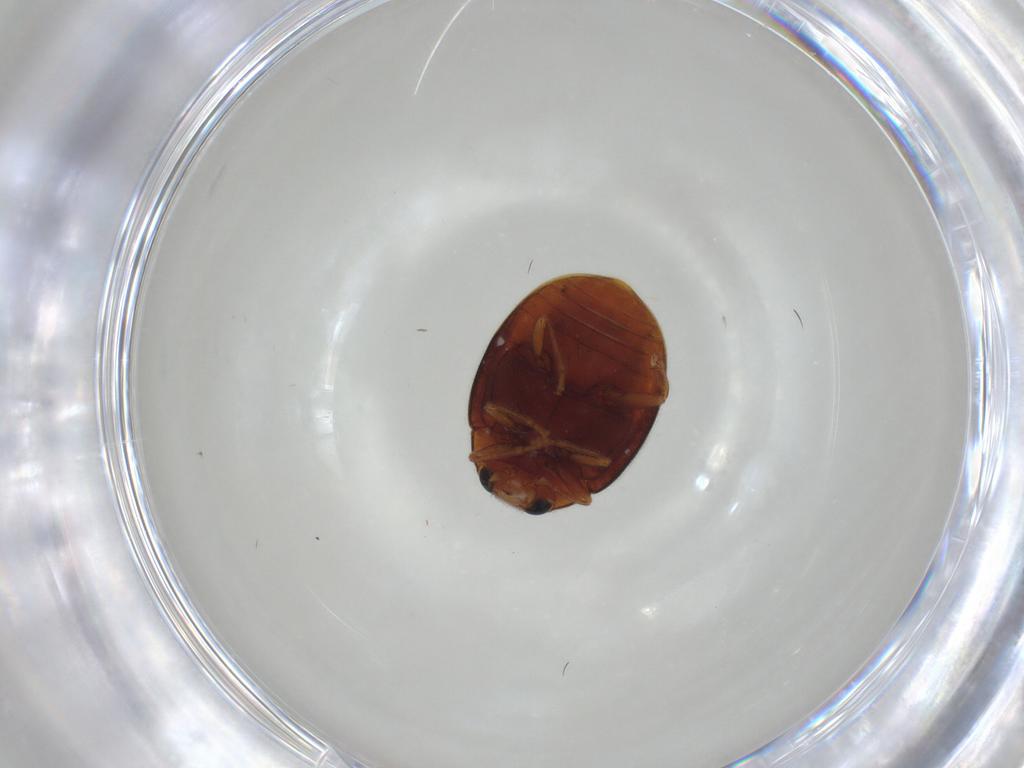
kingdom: Animalia
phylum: Arthropoda
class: Insecta
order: Coleoptera
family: Coccinellidae
